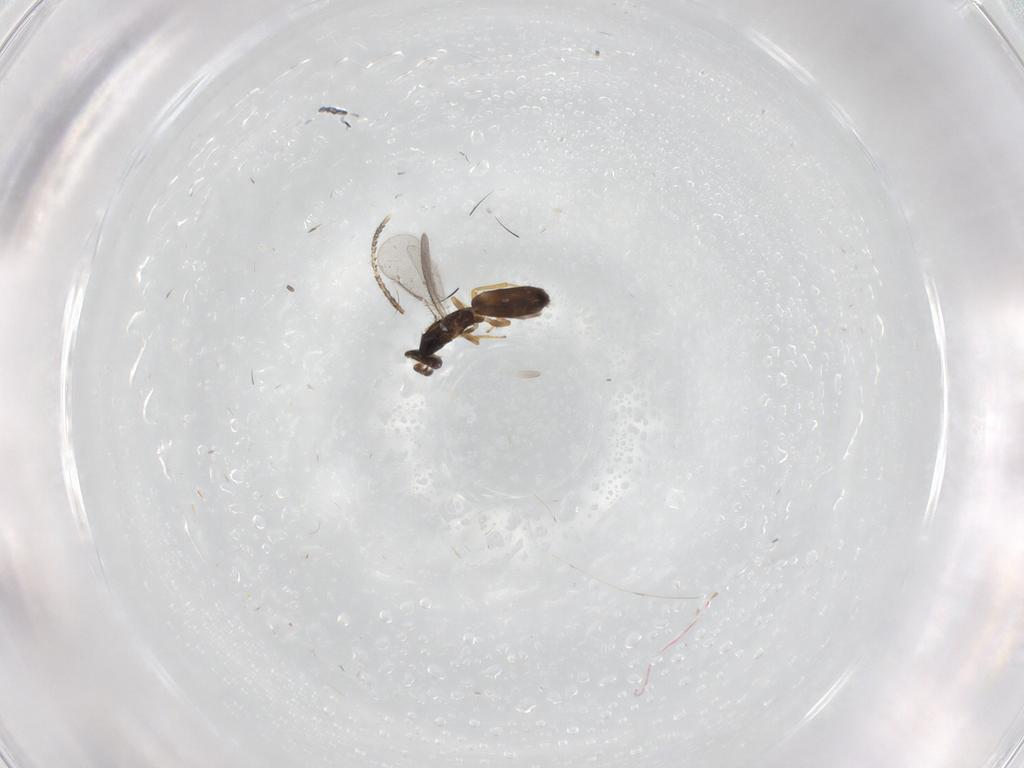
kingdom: Animalia
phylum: Arthropoda
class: Insecta
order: Hymenoptera
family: Eulophidae
